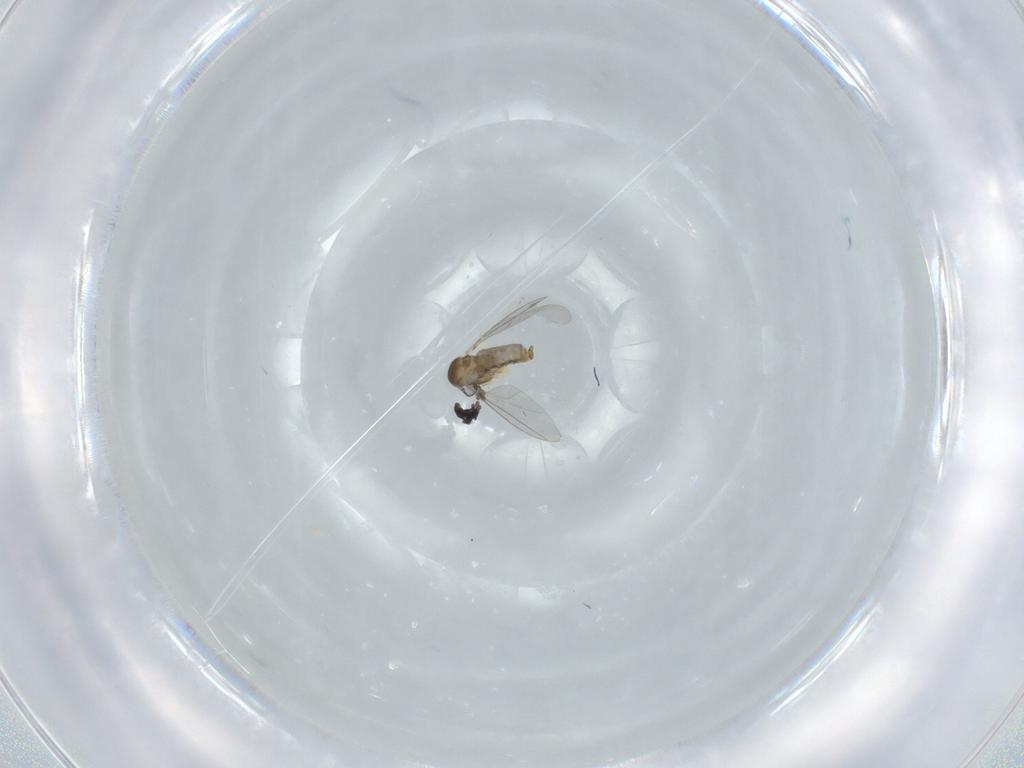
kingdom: Animalia
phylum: Arthropoda
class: Insecta
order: Diptera
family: Cecidomyiidae
